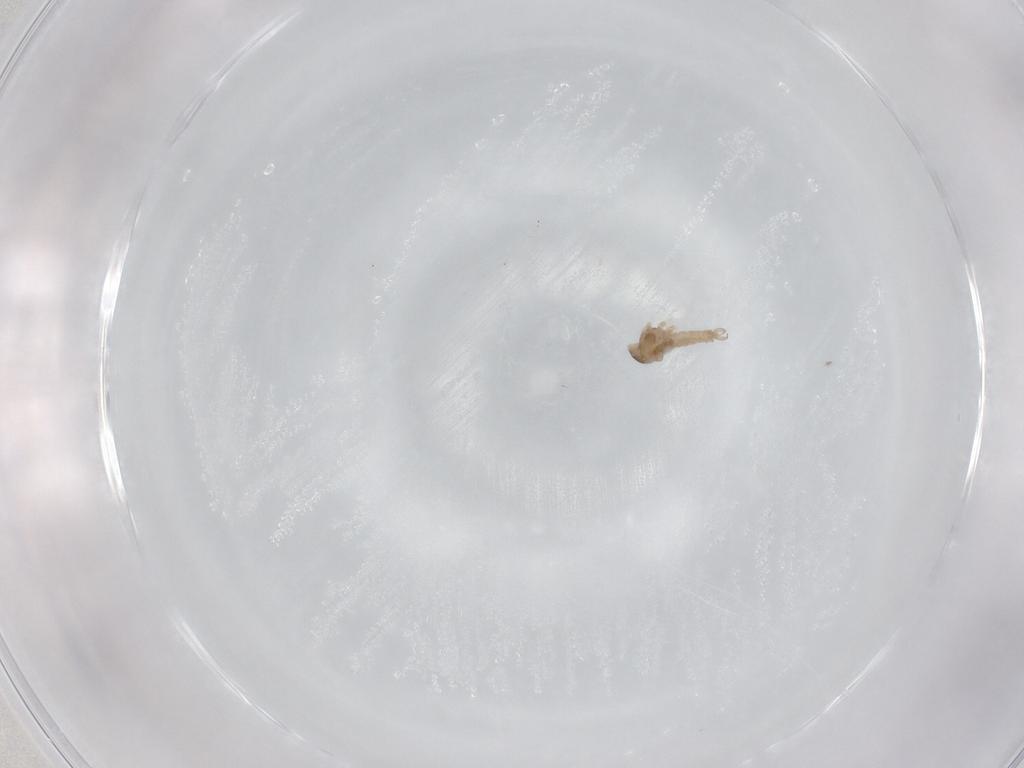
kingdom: Animalia
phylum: Arthropoda
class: Insecta
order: Diptera
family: Cecidomyiidae
